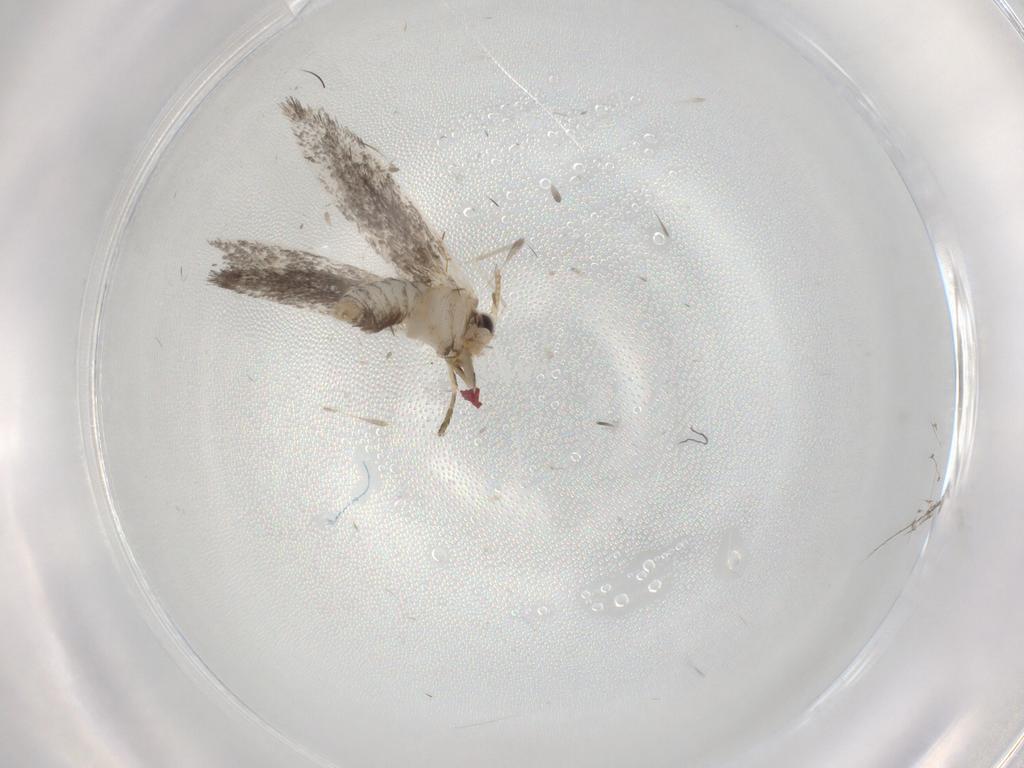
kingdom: Animalia
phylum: Arthropoda
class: Insecta
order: Lepidoptera
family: Tineidae
